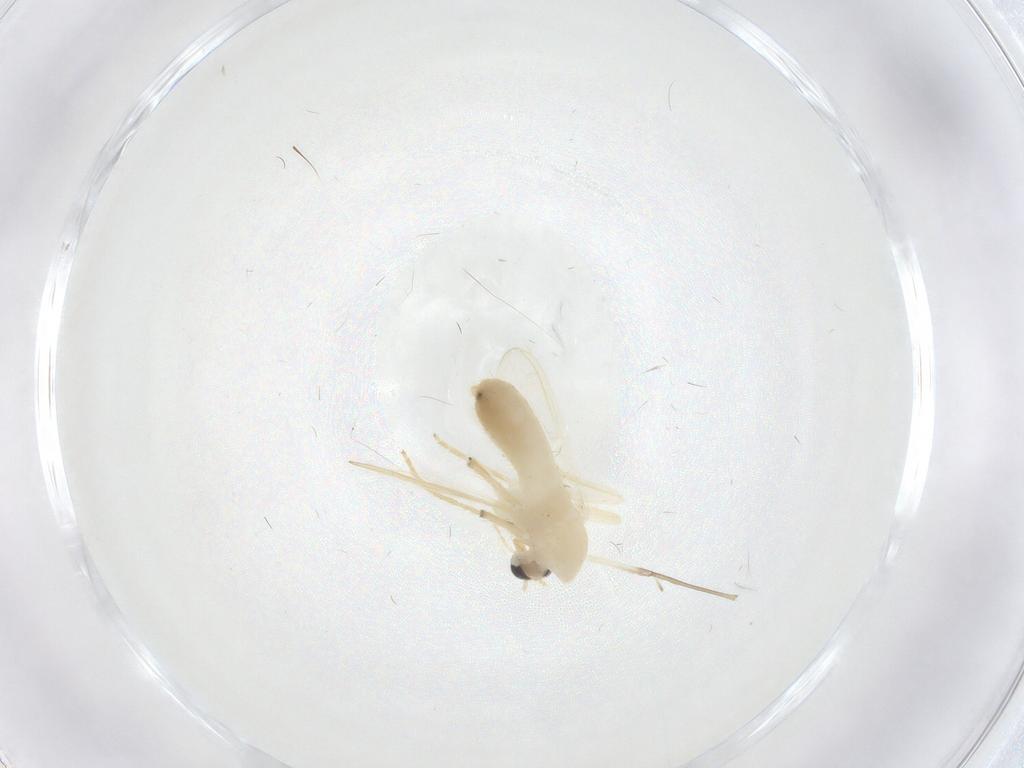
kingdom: Animalia
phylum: Arthropoda
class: Insecta
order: Diptera
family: Chironomidae
